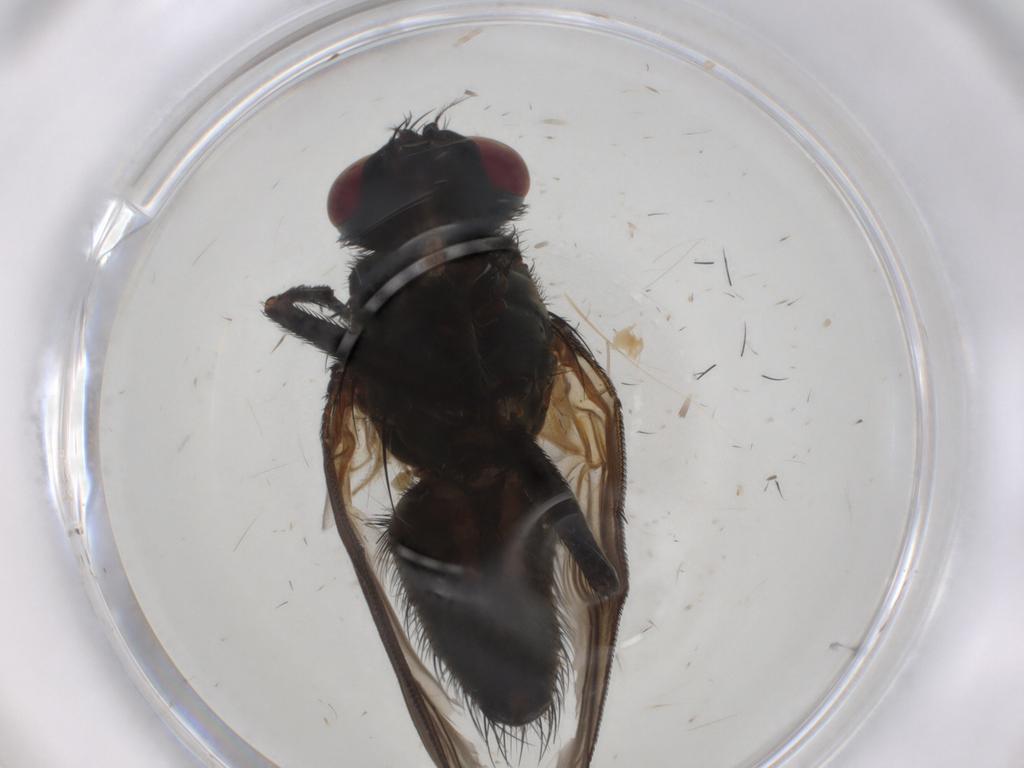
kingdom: Animalia
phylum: Arthropoda
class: Insecta
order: Diptera
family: Muscidae
